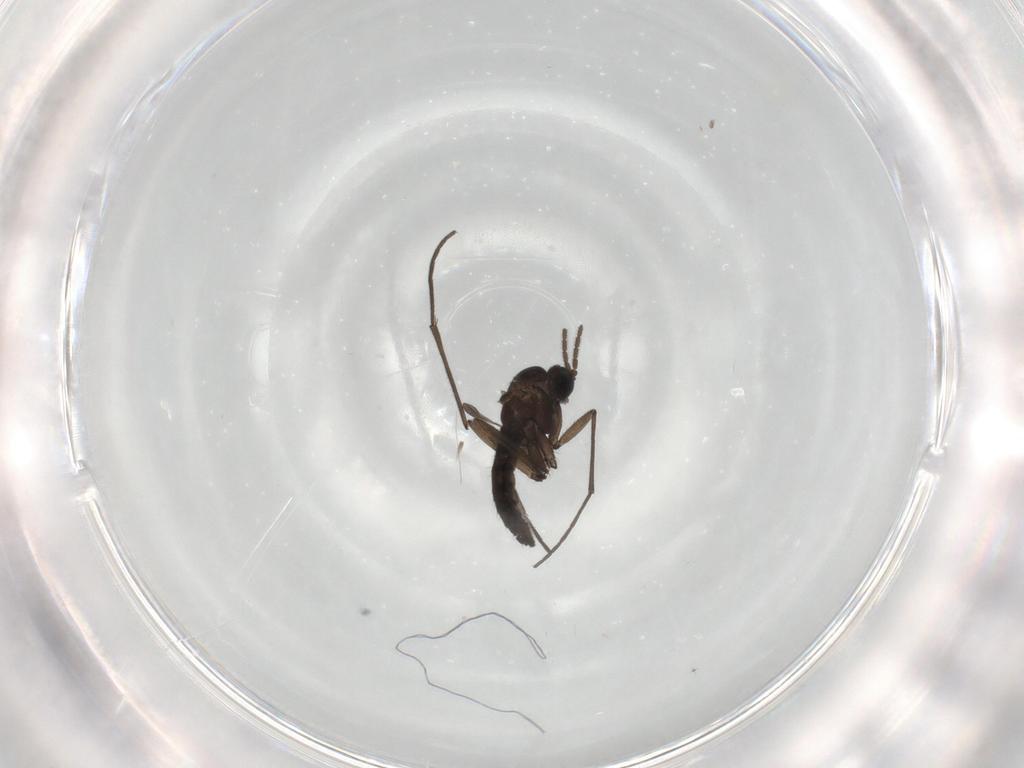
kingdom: Animalia
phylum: Arthropoda
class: Insecta
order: Diptera
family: Sciaridae
